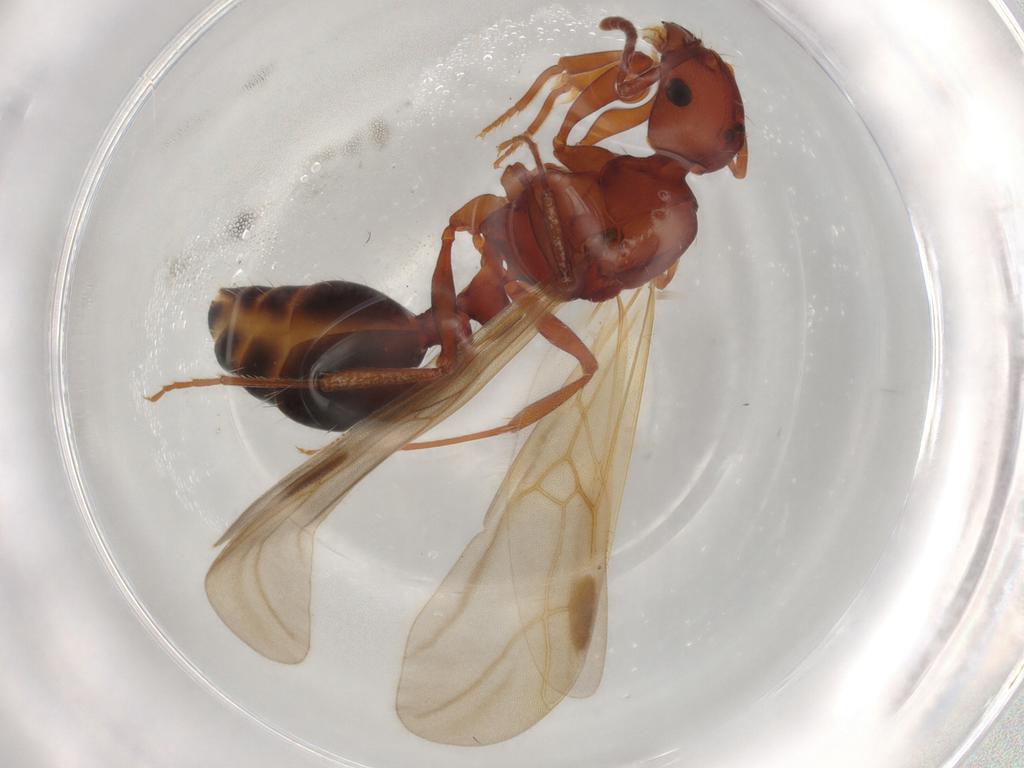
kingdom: Animalia
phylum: Arthropoda
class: Insecta
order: Hymenoptera
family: Formicidae
